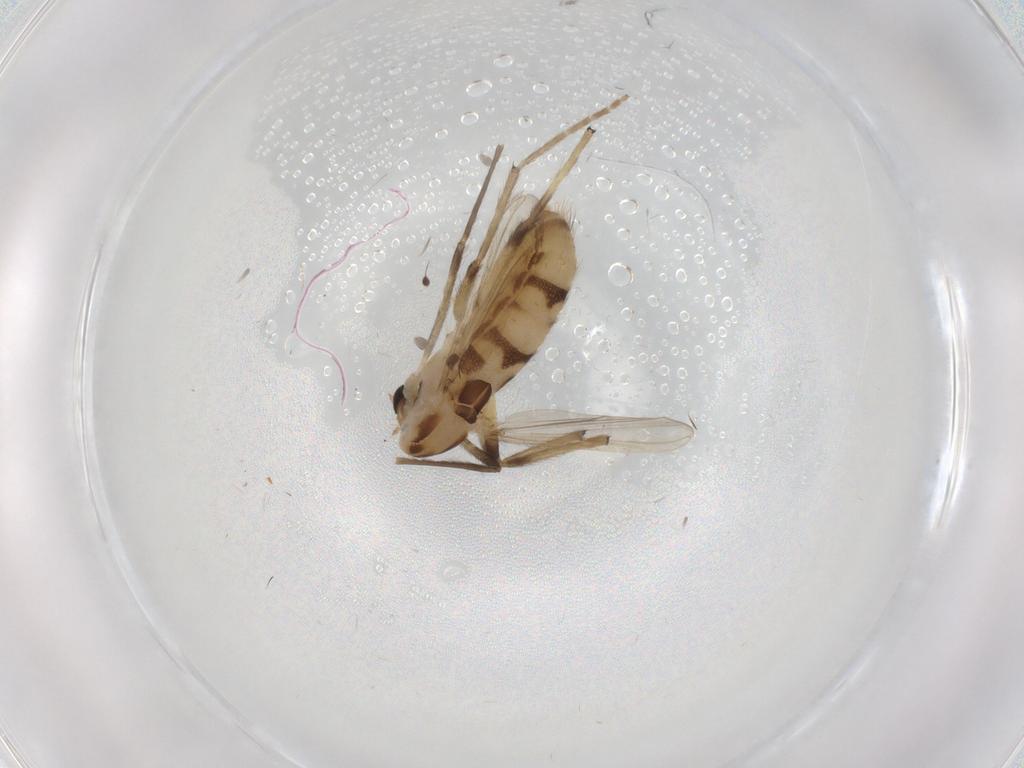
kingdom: Animalia
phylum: Arthropoda
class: Insecta
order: Diptera
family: Chironomidae
